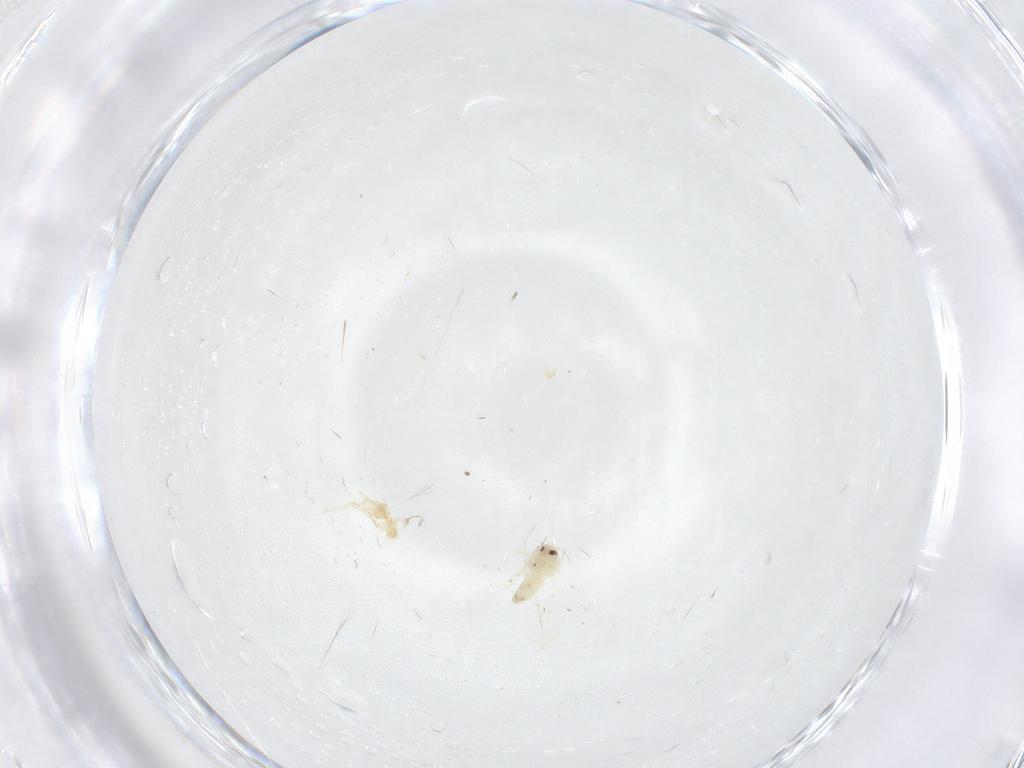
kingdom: Animalia
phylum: Arthropoda
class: Insecta
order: Hemiptera
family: Aleyrodidae
